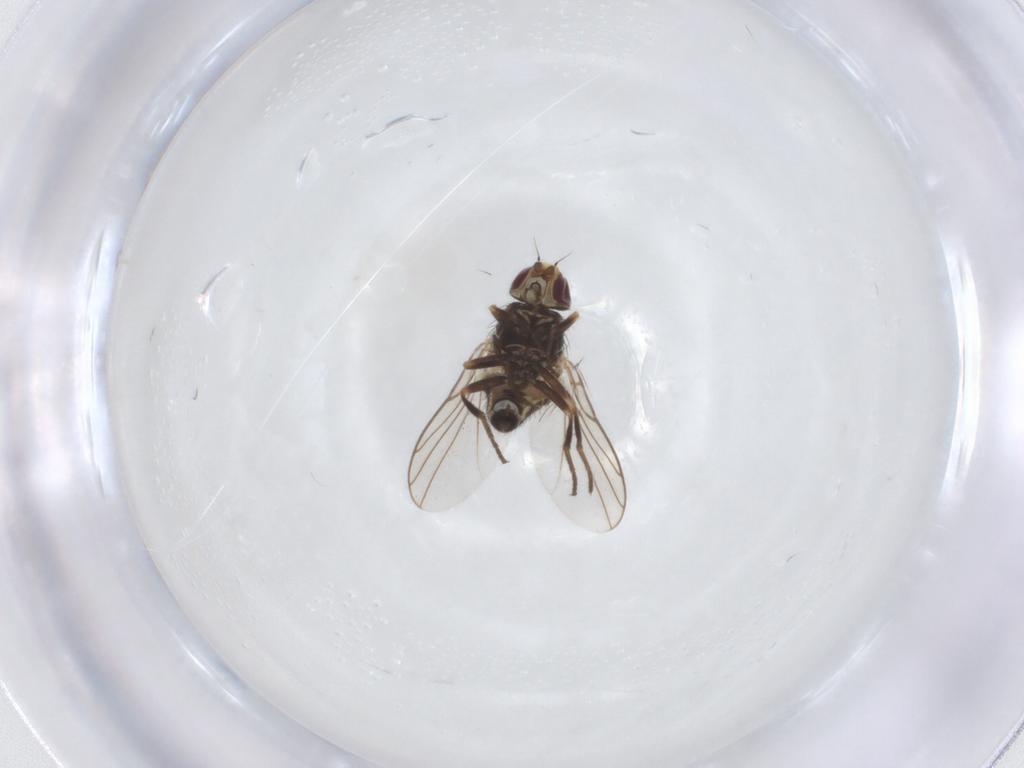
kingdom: Animalia
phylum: Arthropoda
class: Insecta
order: Diptera
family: Agromyzidae
